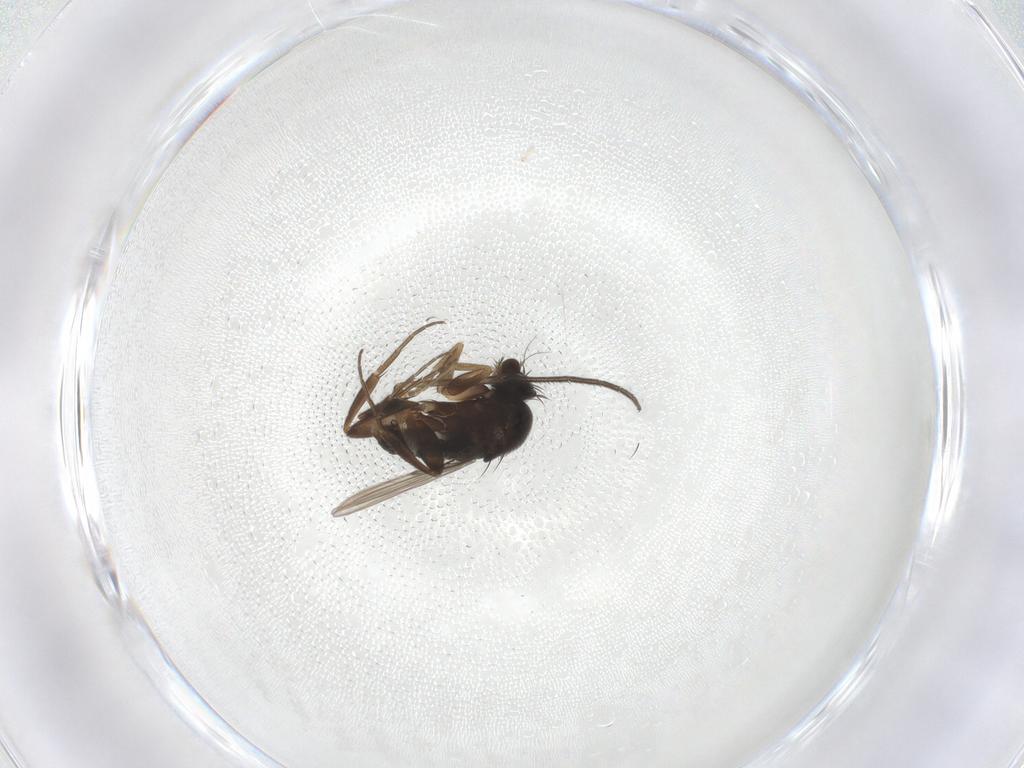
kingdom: Animalia
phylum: Arthropoda
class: Insecta
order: Diptera
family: Phoridae
